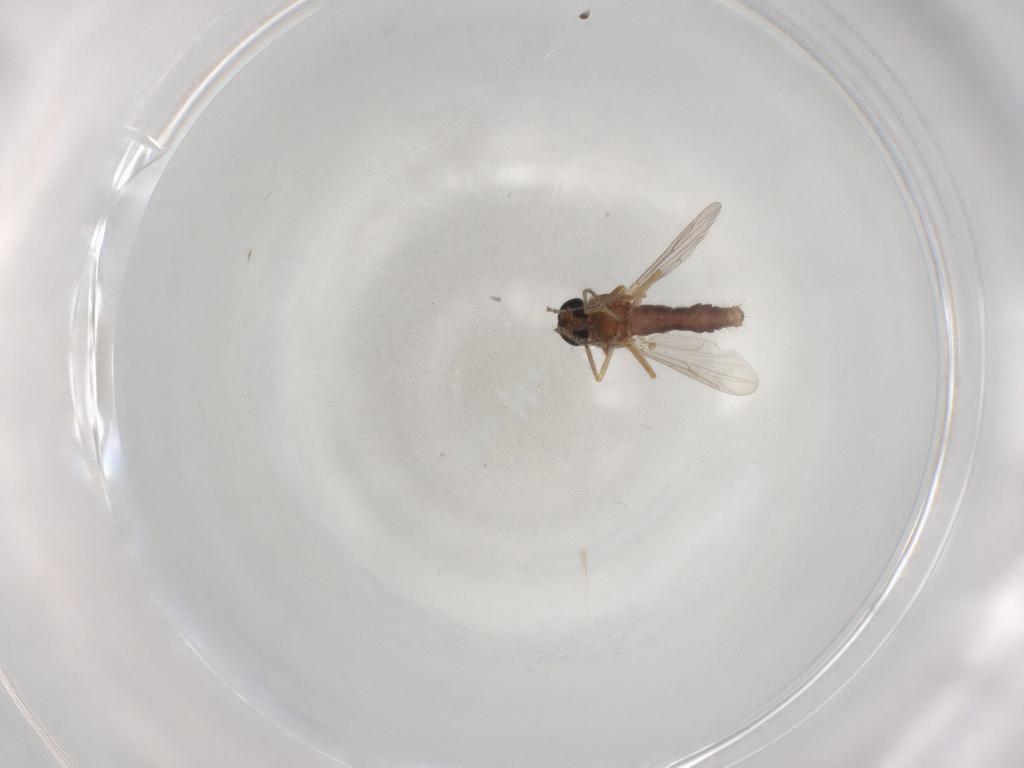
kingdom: Animalia
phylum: Arthropoda
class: Insecta
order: Diptera
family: Ceratopogonidae
